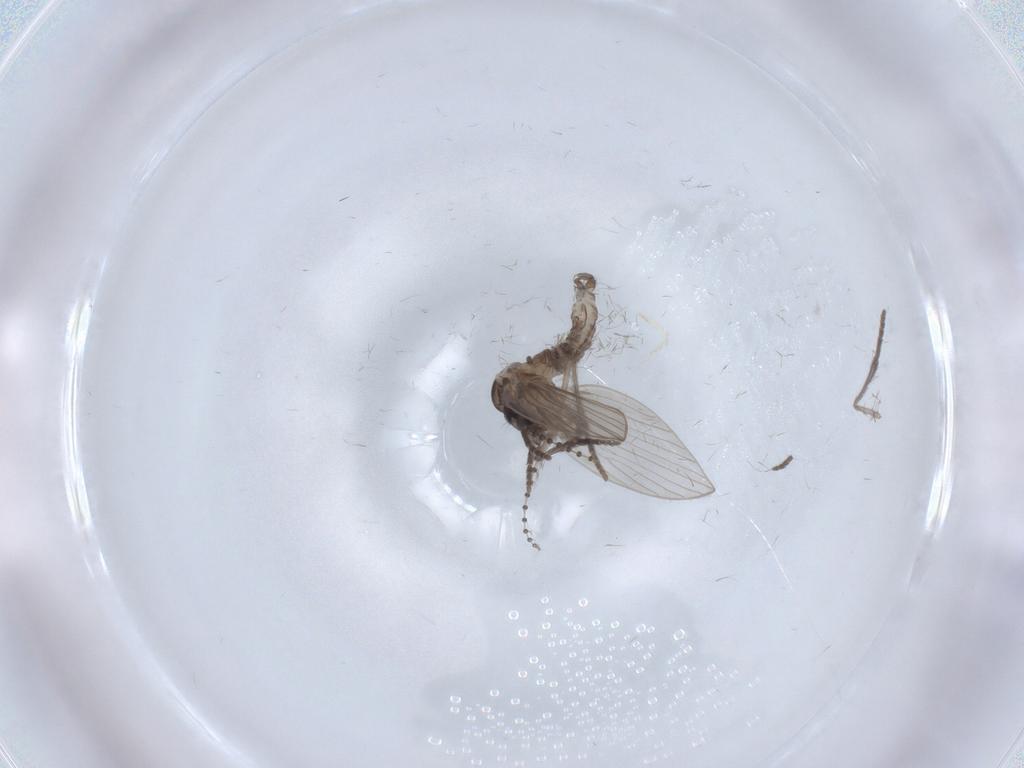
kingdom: Animalia
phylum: Arthropoda
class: Insecta
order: Diptera
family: Psychodidae
